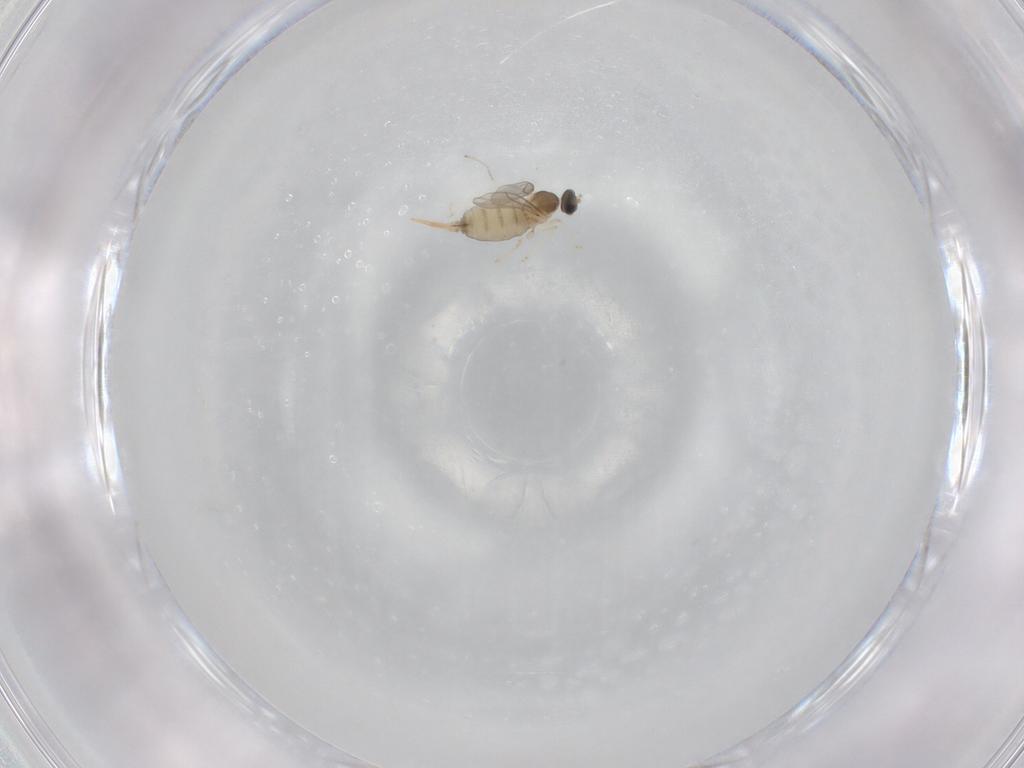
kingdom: Animalia
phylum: Arthropoda
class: Insecta
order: Diptera
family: Cecidomyiidae
